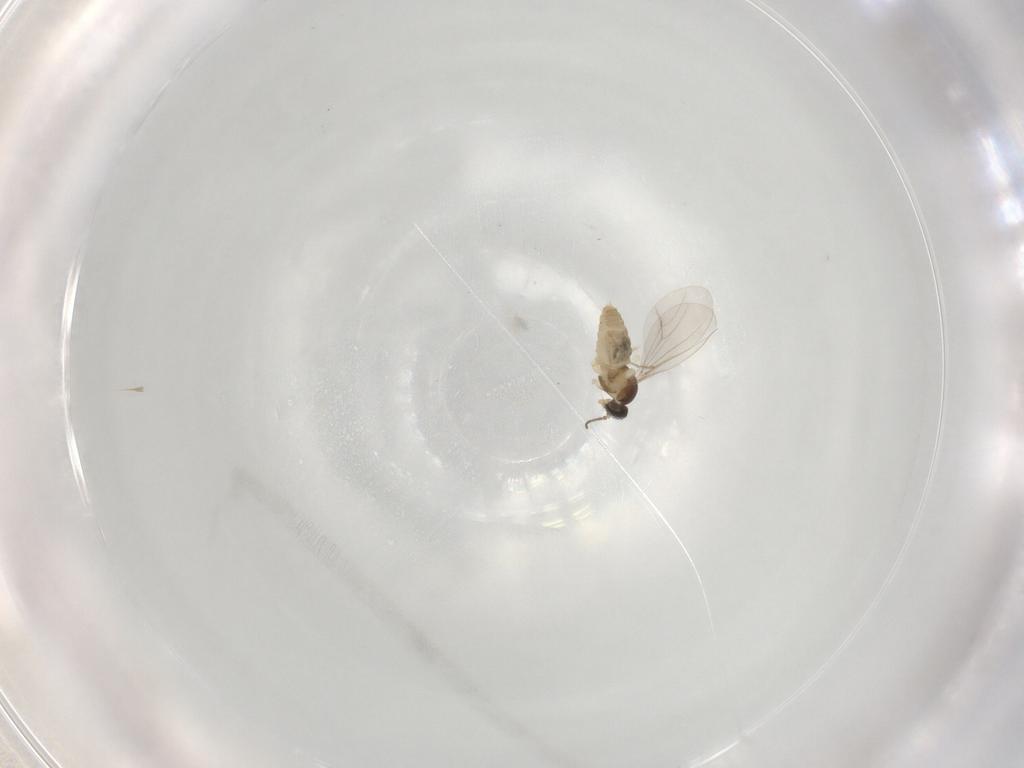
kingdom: Animalia
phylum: Arthropoda
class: Insecta
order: Diptera
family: Cecidomyiidae
